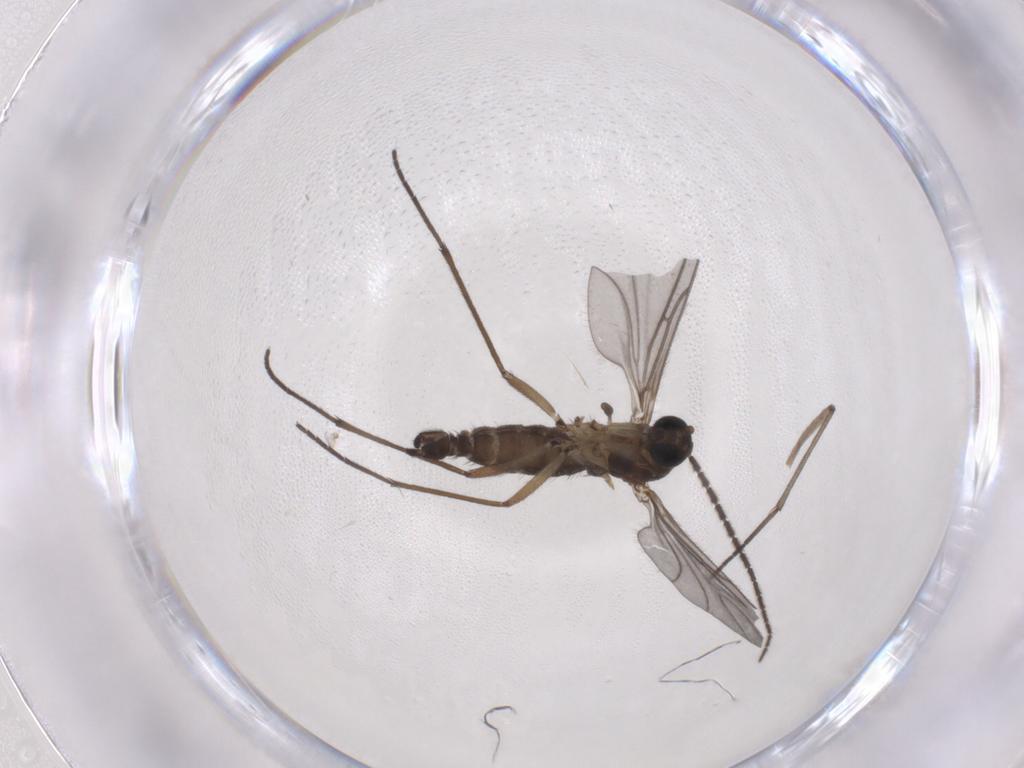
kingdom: Animalia
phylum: Arthropoda
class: Insecta
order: Diptera
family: Sciaridae
